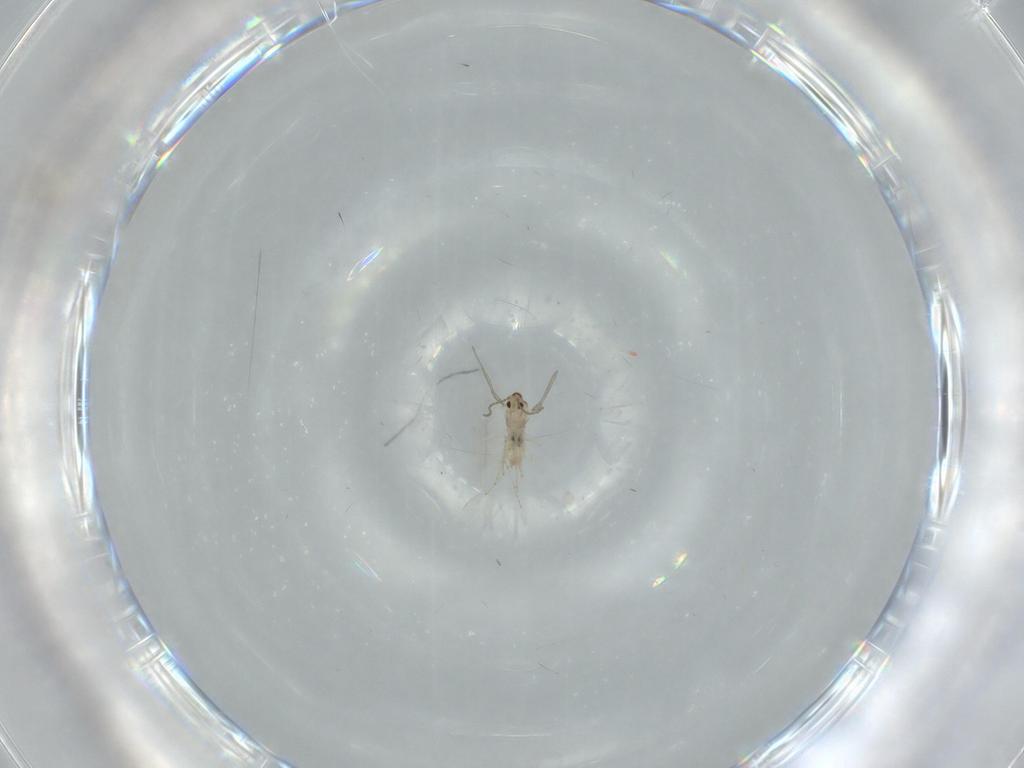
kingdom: Animalia
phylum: Arthropoda
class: Insecta
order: Diptera
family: Cecidomyiidae
